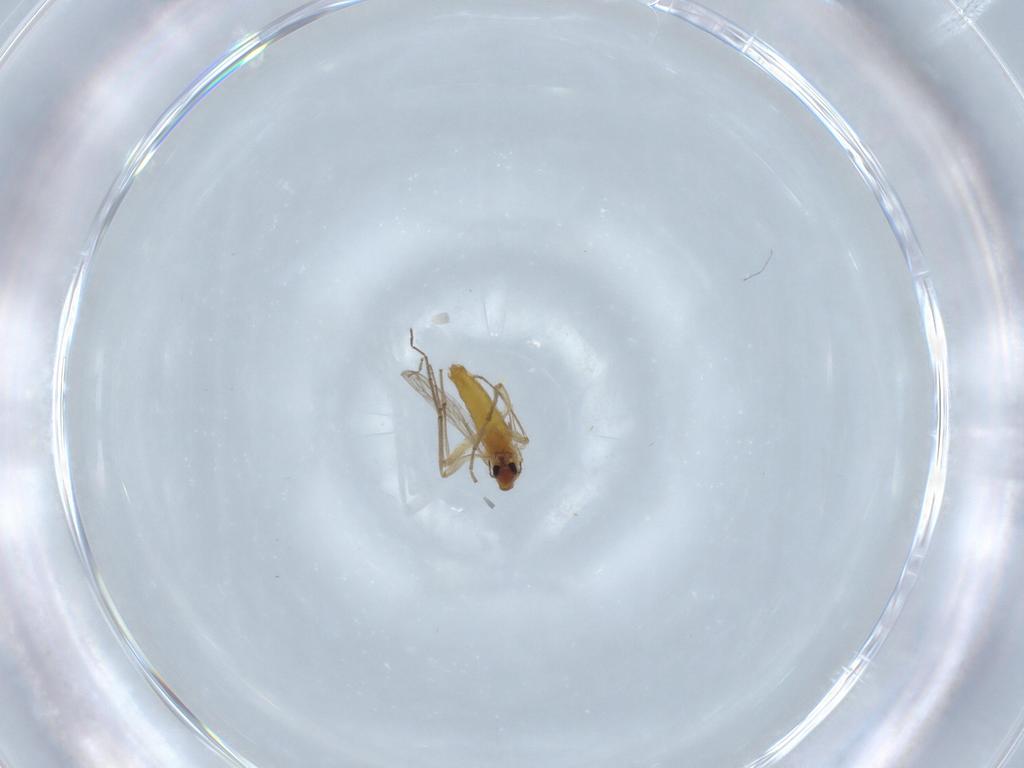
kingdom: Animalia
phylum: Arthropoda
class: Insecta
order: Diptera
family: Chironomidae
